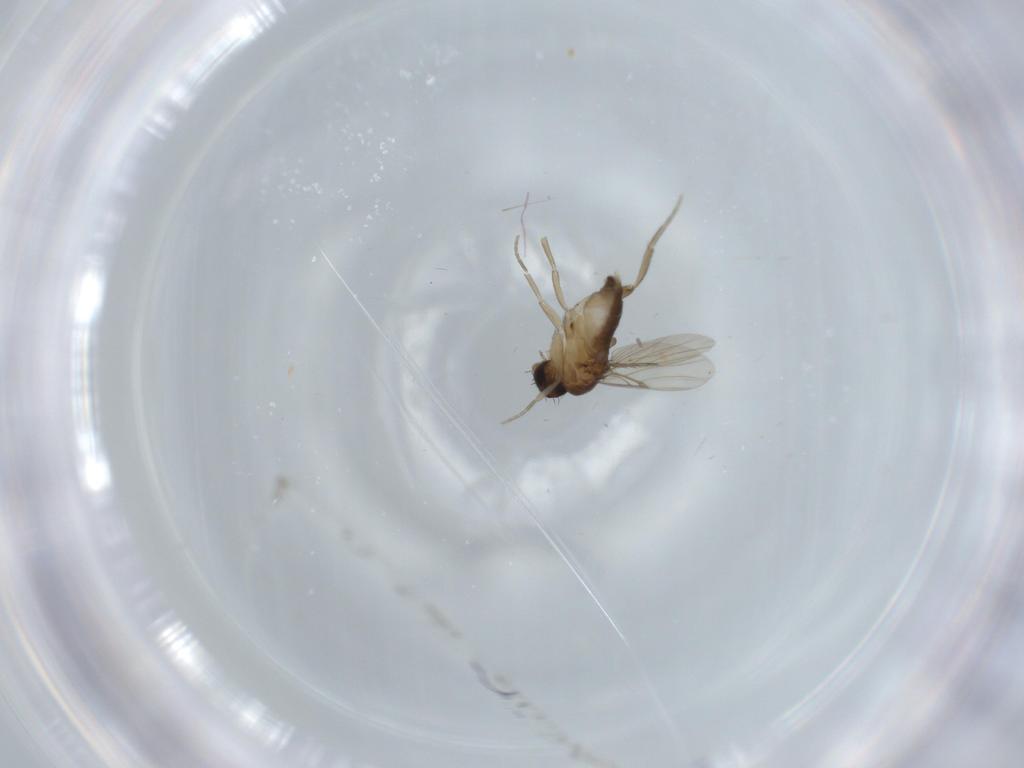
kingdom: Animalia
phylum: Arthropoda
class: Insecta
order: Diptera
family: Phoridae
